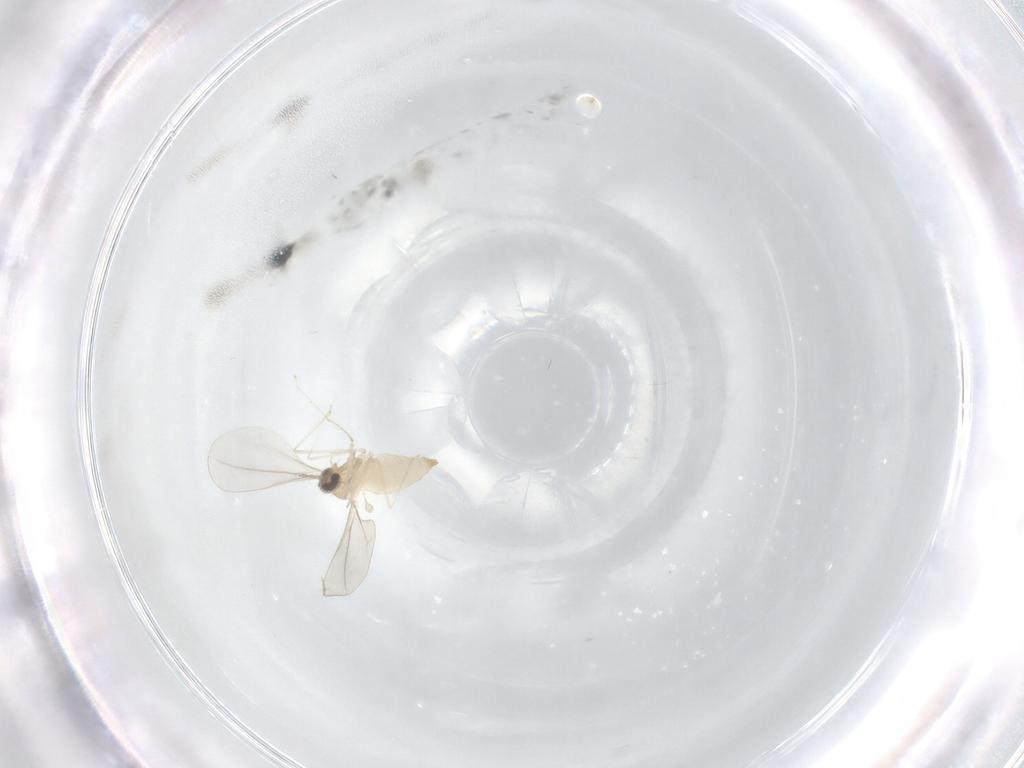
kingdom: Animalia
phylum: Arthropoda
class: Insecta
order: Diptera
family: Cecidomyiidae
